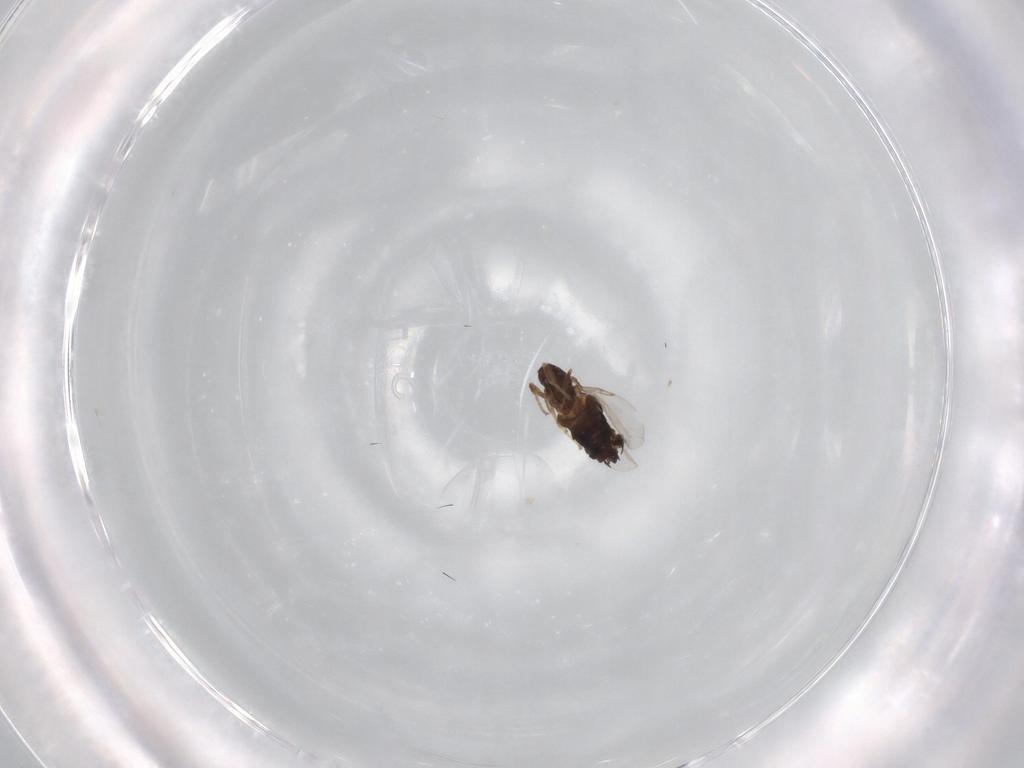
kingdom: Animalia
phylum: Arthropoda
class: Insecta
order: Diptera
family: Scatopsidae
